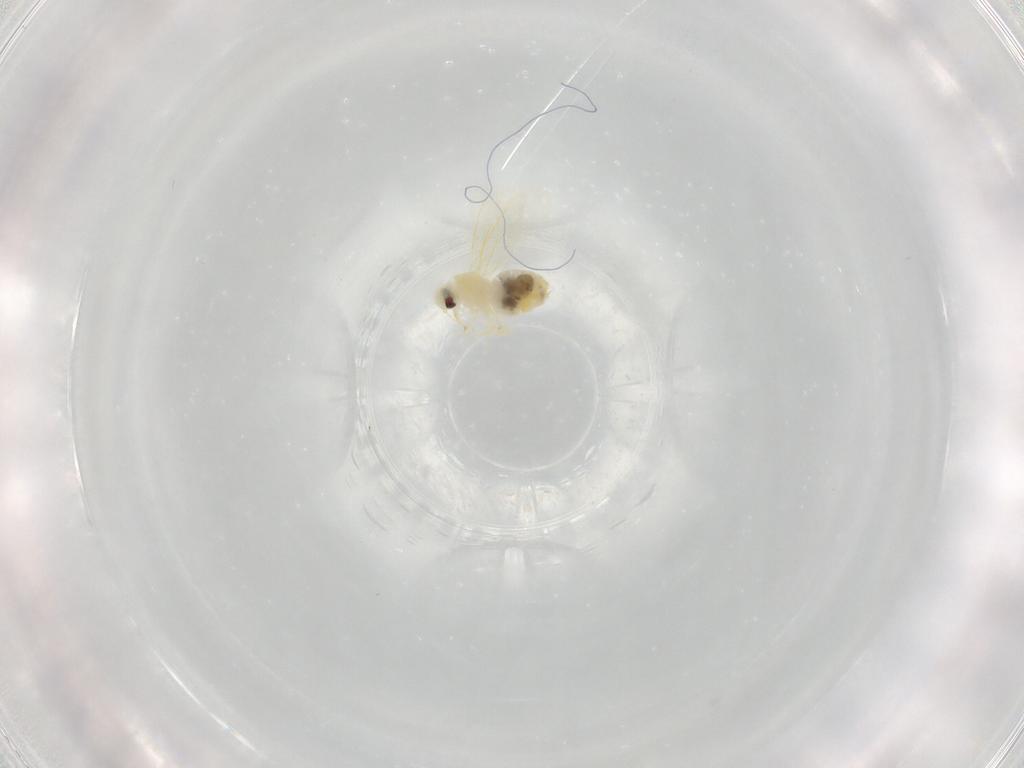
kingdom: Animalia
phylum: Arthropoda
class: Insecta
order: Hemiptera
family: Aleyrodidae
